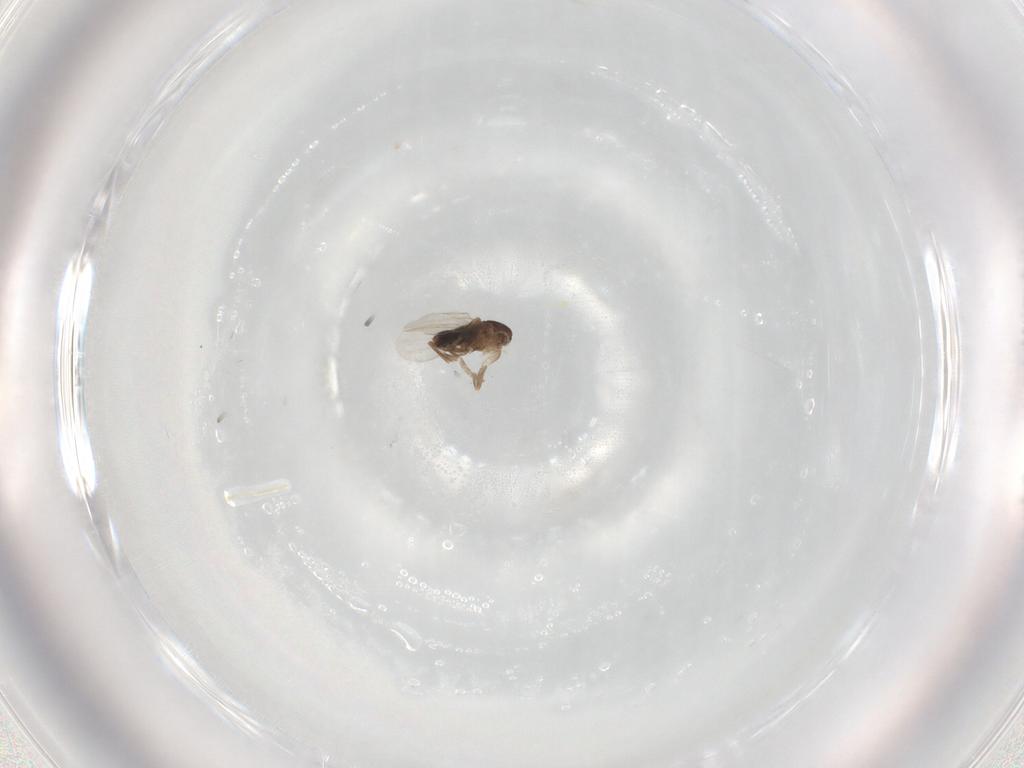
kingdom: Animalia
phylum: Arthropoda
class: Insecta
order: Diptera
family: Phoridae
